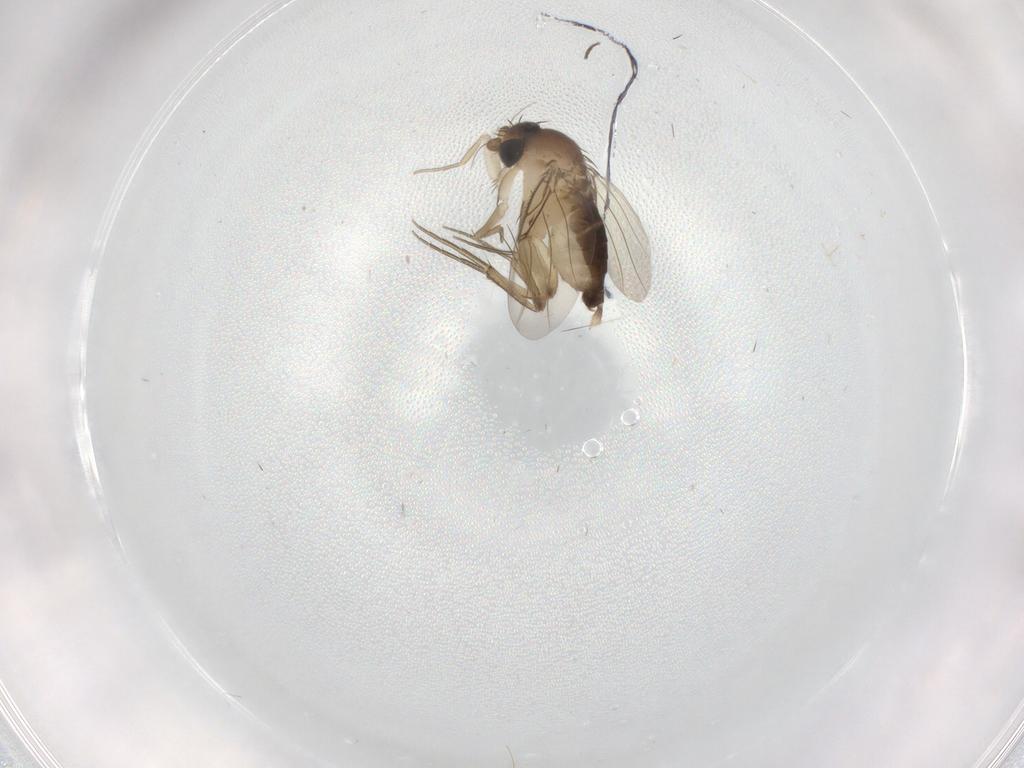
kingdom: Animalia
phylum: Arthropoda
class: Insecta
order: Diptera
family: Phoridae
